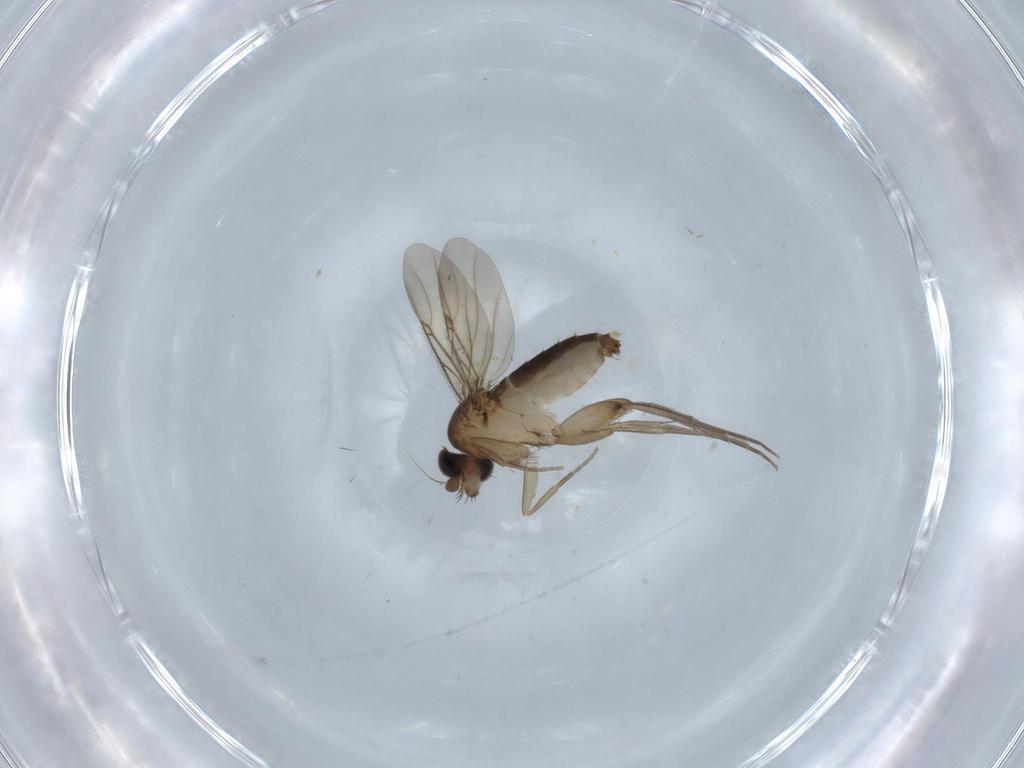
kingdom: Animalia
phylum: Arthropoda
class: Insecta
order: Diptera
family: Phoridae
